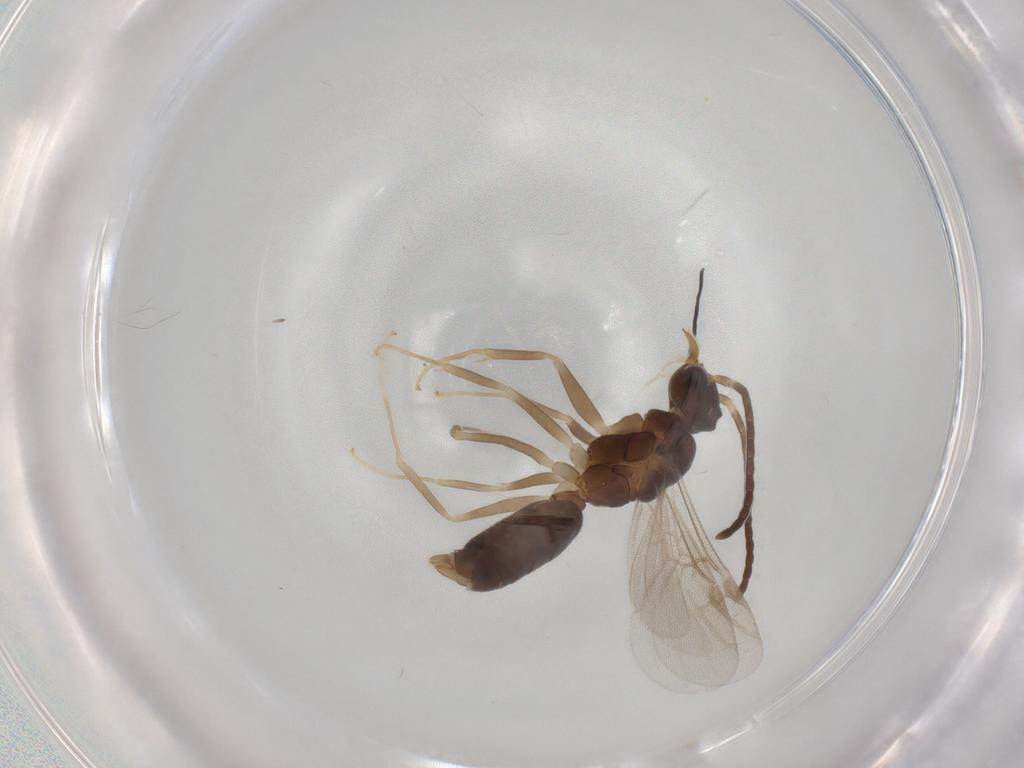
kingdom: Animalia
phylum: Arthropoda
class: Insecta
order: Hymenoptera
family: Formicidae
